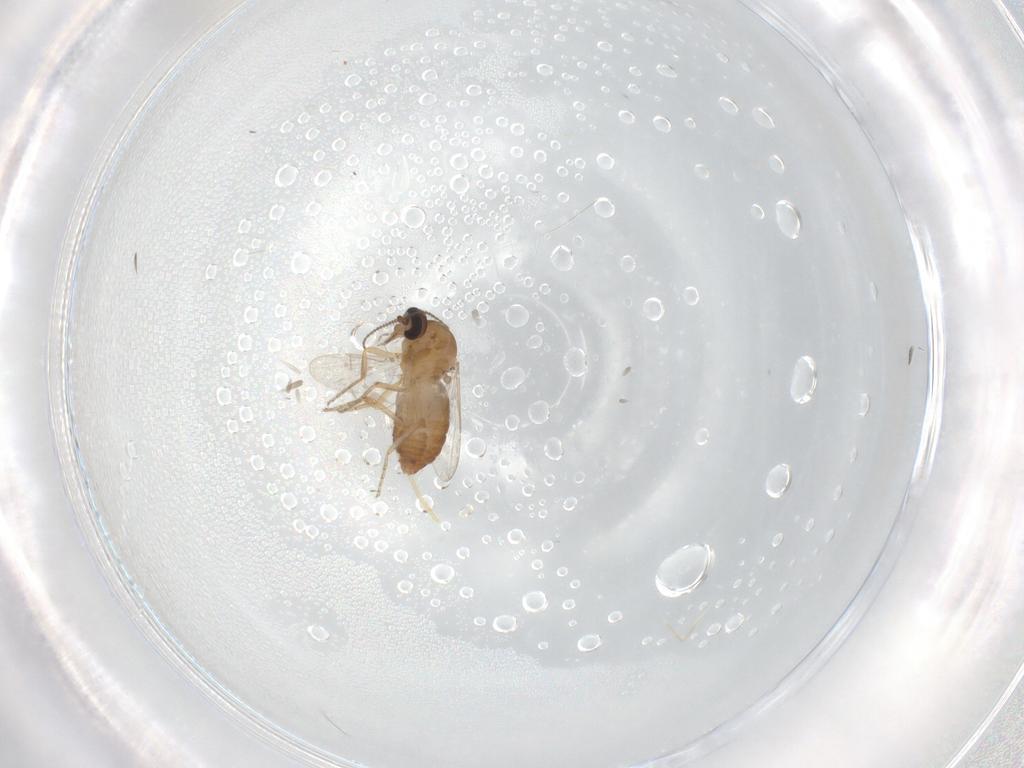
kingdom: Animalia
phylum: Arthropoda
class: Insecta
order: Diptera
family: Ceratopogonidae
